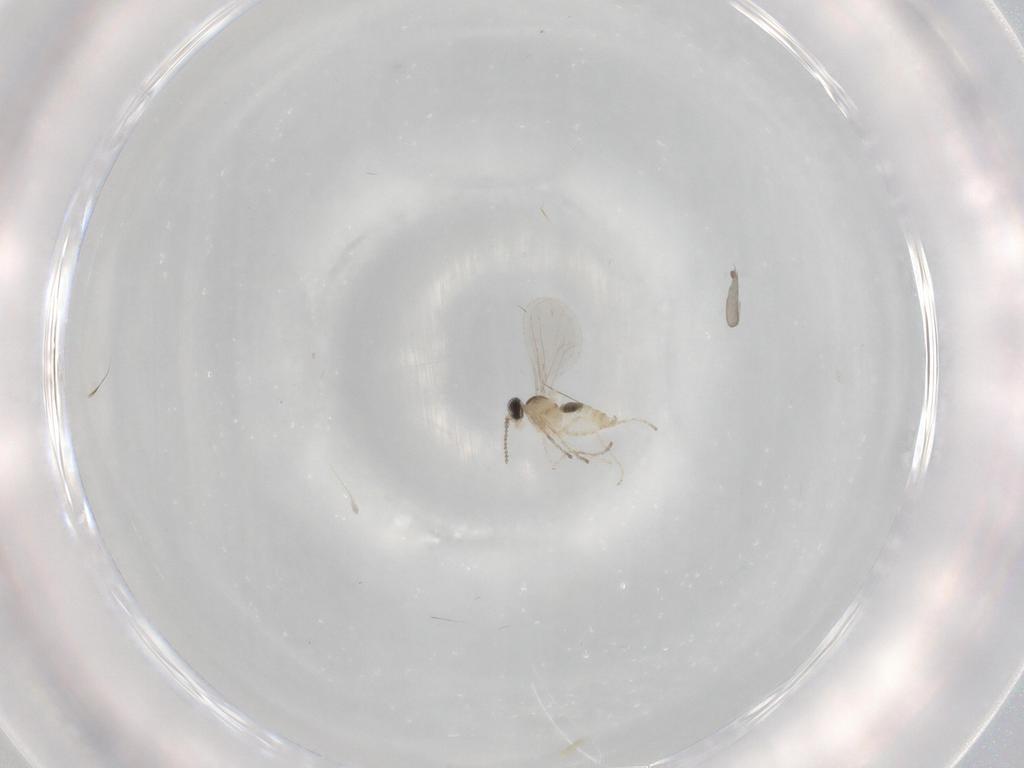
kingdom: Animalia
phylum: Arthropoda
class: Insecta
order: Diptera
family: Cecidomyiidae
